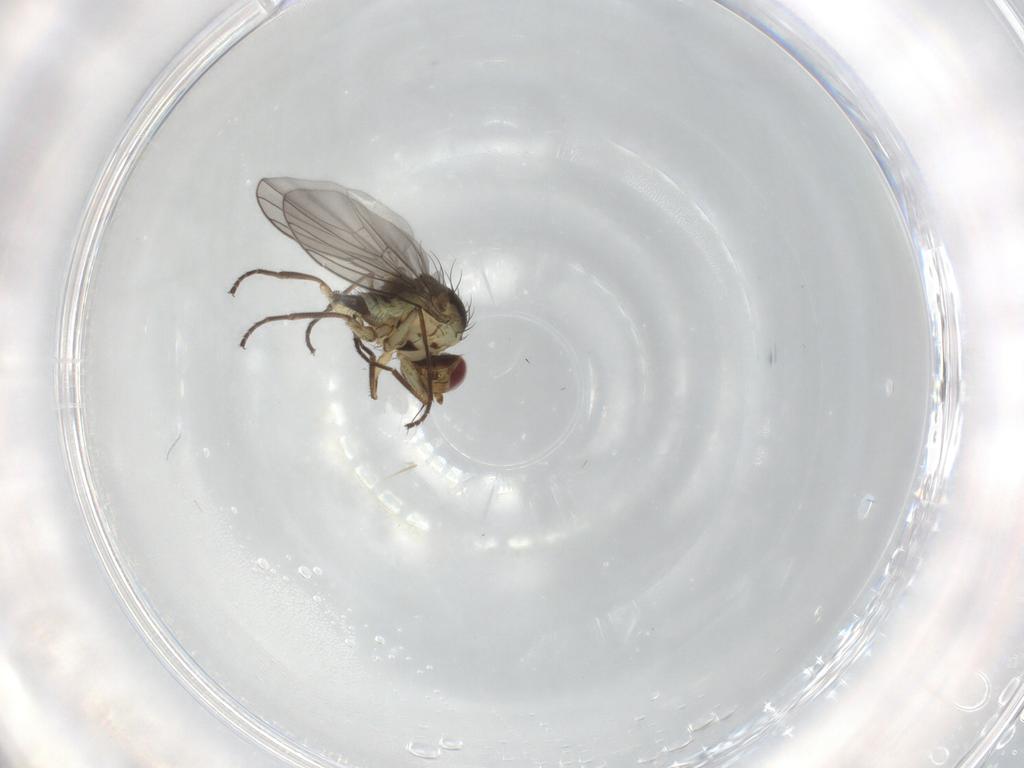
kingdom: Animalia
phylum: Arthropoda
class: Insecta
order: Diptera
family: Agromyzidae
